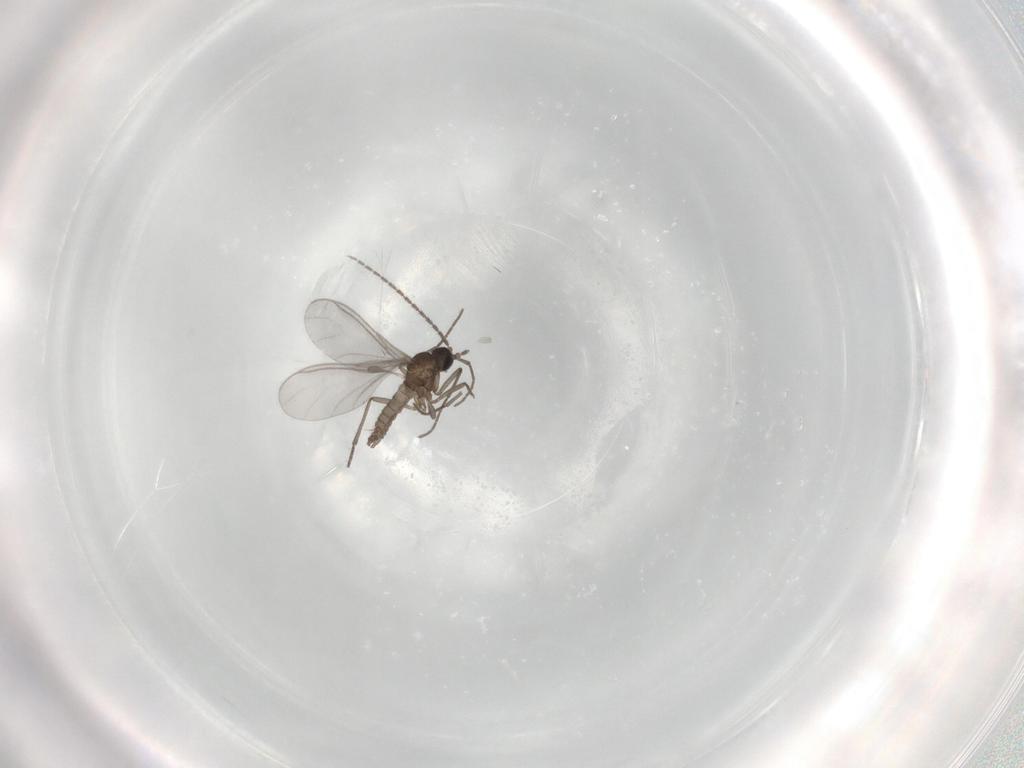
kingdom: Animalia
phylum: Arthropoda
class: Insecta
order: Diptera
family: Sciaridae
